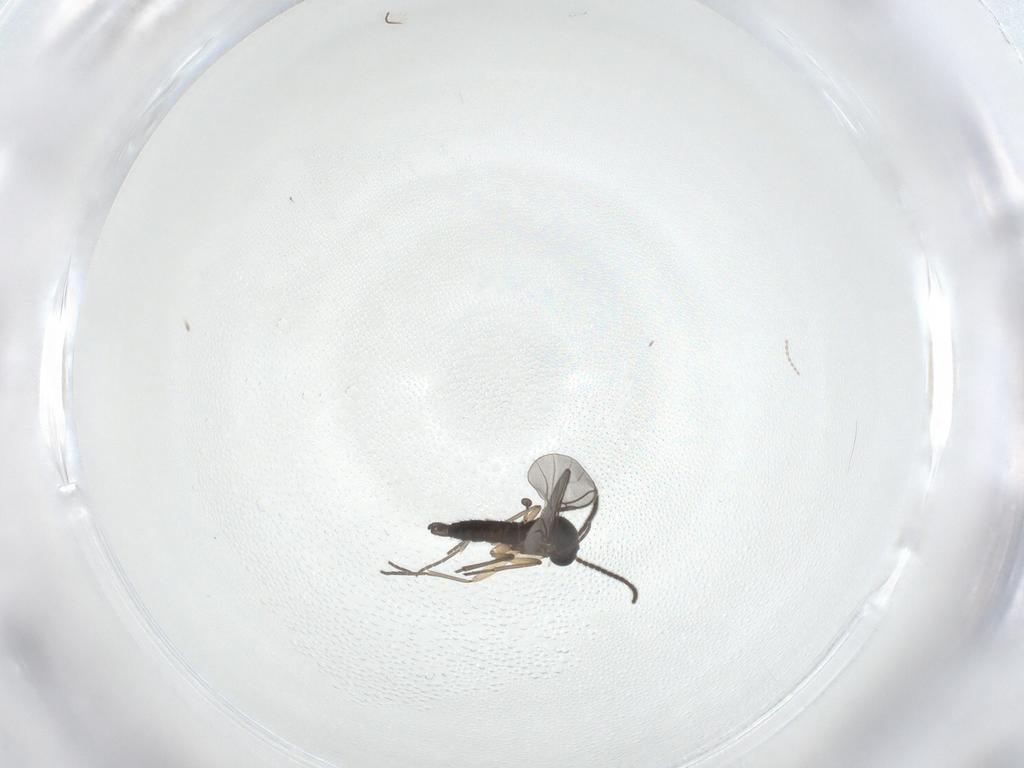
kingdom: Animalia
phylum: Arthropoda
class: Insecta
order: Diptera
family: Sciaridae
